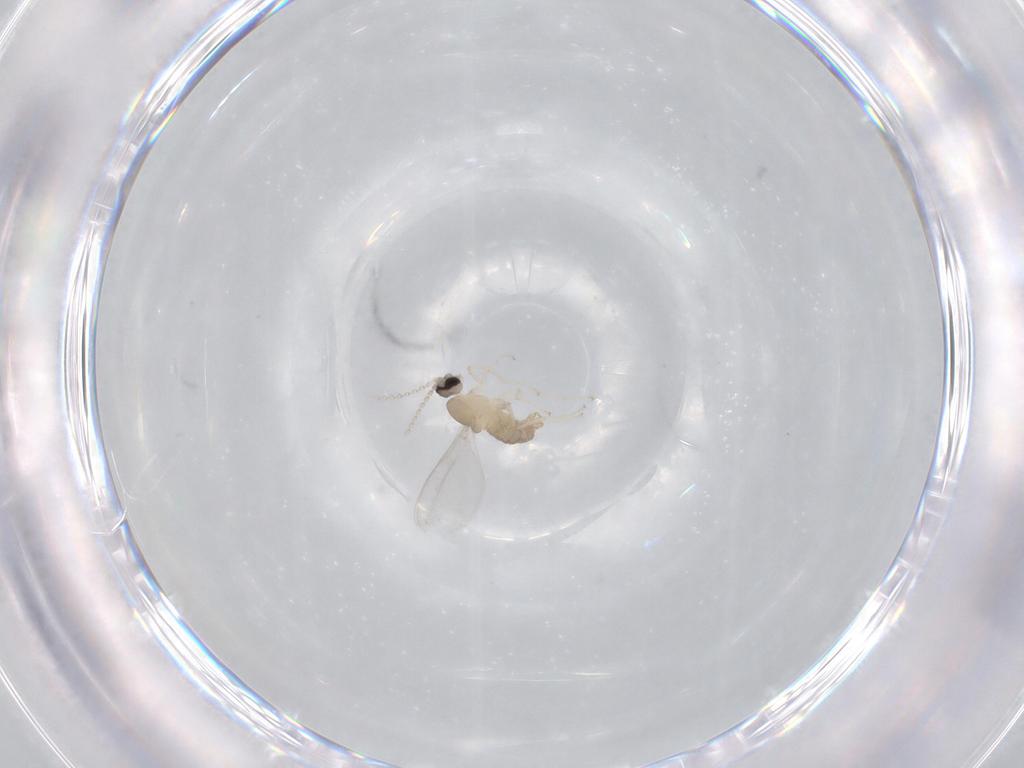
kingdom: Animalia
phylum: Arthropoda
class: Insecta
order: Diptera
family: Cecidomyiidae
